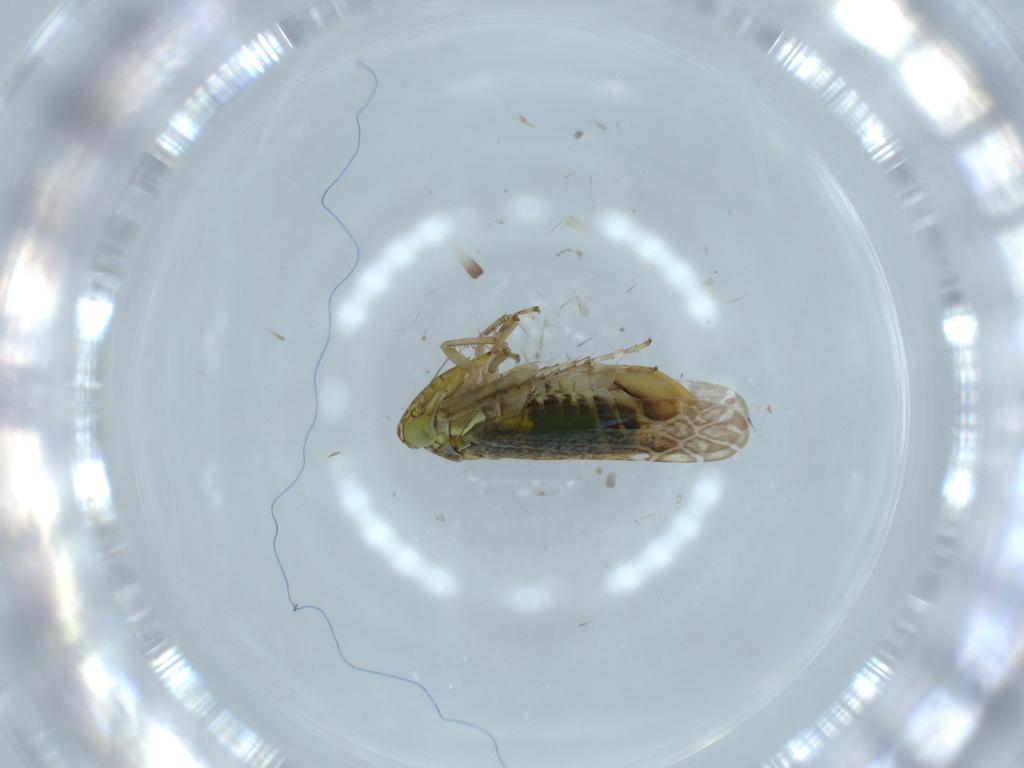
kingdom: Animalia
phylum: Arthropoda
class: Insecta
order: Hemiptera
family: Cicadellidae
